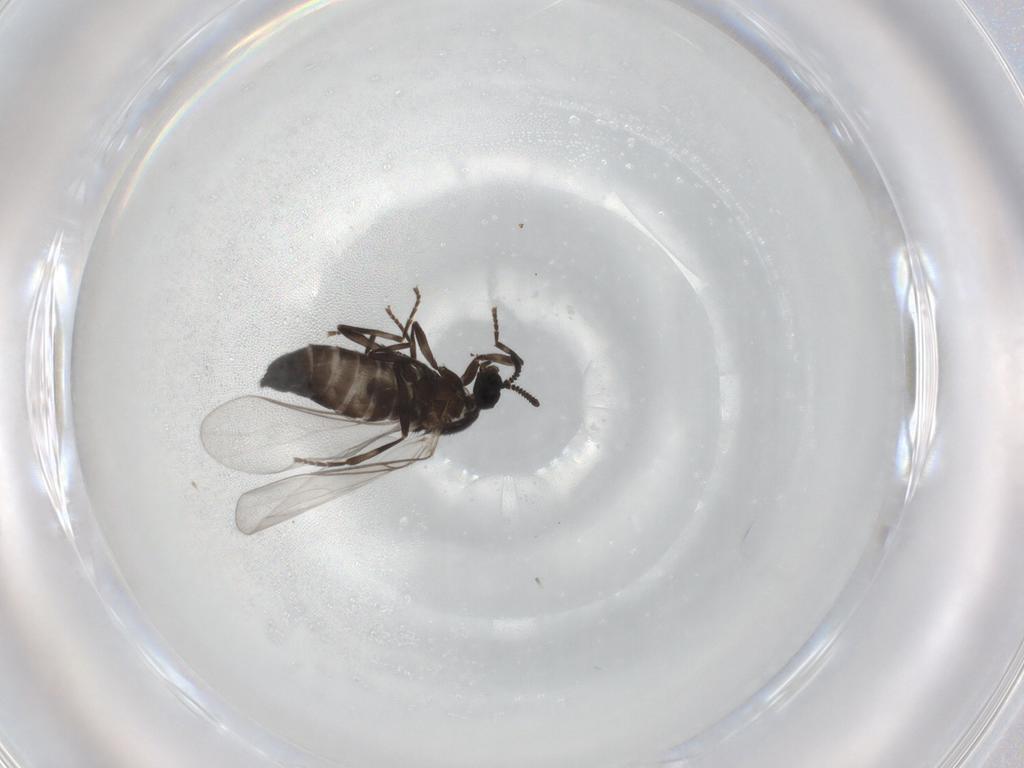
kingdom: Animalia
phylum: Arthropoda
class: Insecta
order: Diptera
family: Scatopsidae
